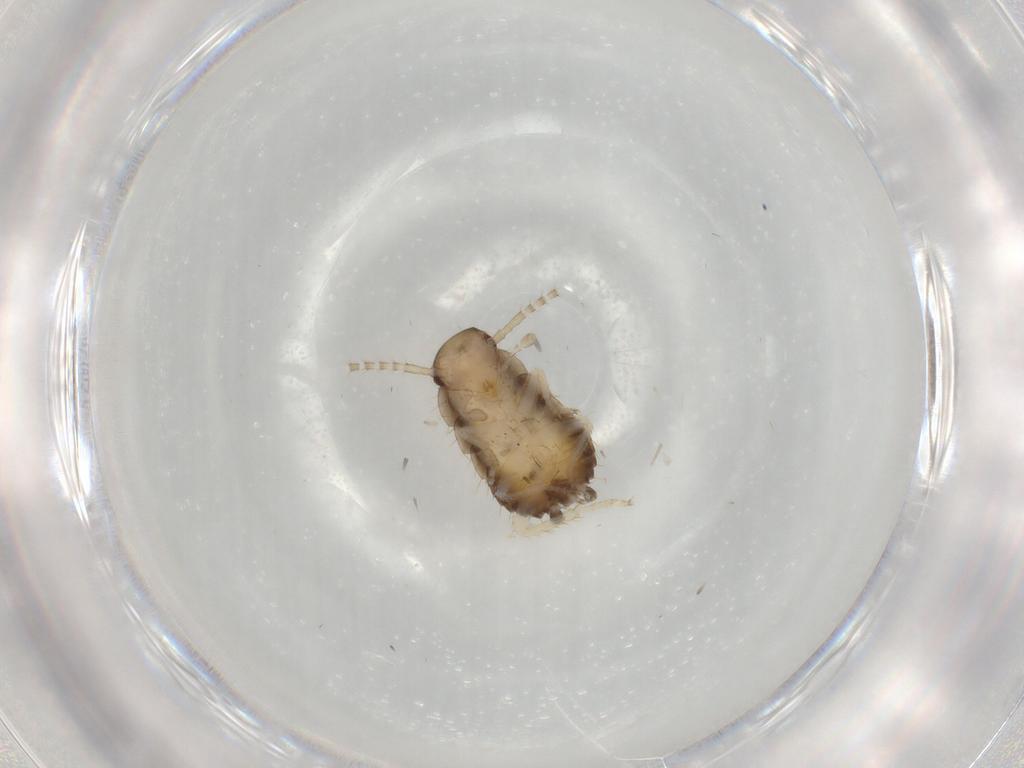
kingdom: Animalia
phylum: Arthropoda
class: Insecta
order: Blattodea
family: Ectobiidae
